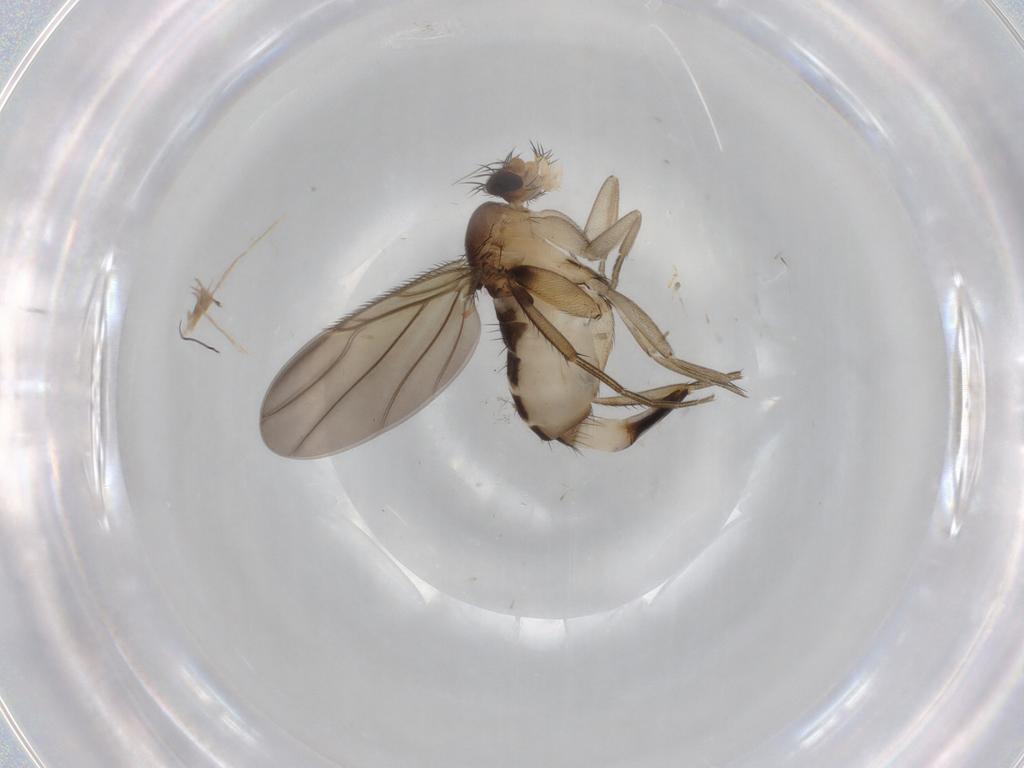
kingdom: Animalia
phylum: Arthropoda
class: Insecta
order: Diptera
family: Phoridae
